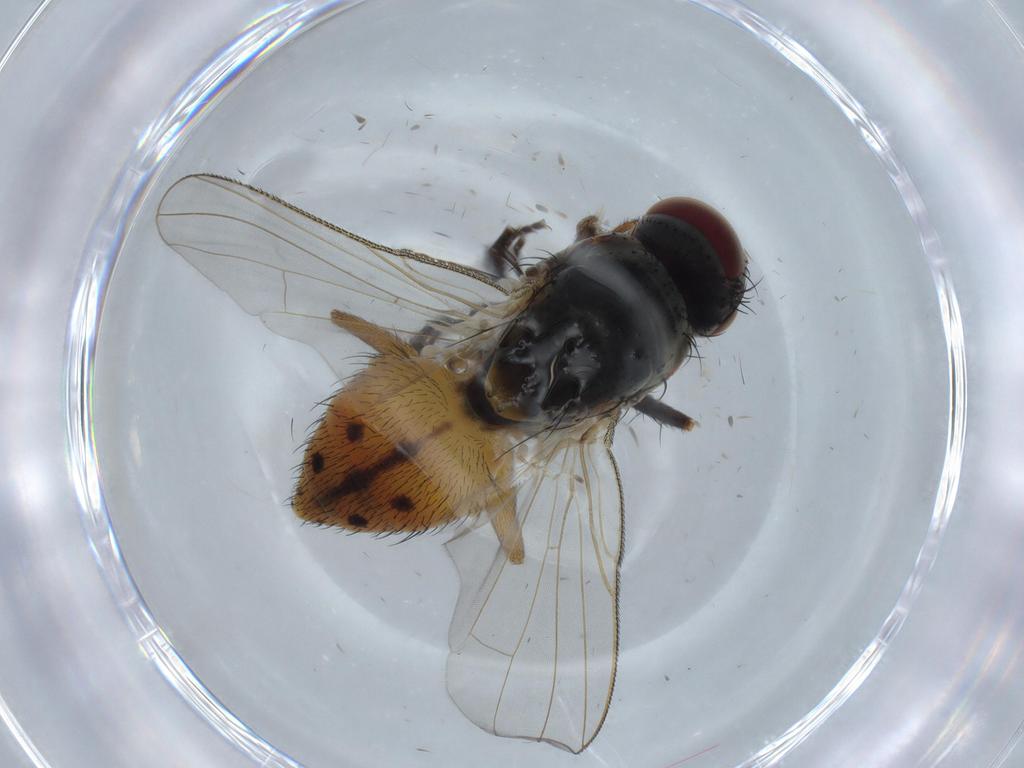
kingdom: Animalia
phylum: Arthropoda
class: Insecta
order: Diptera
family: Muscidae
